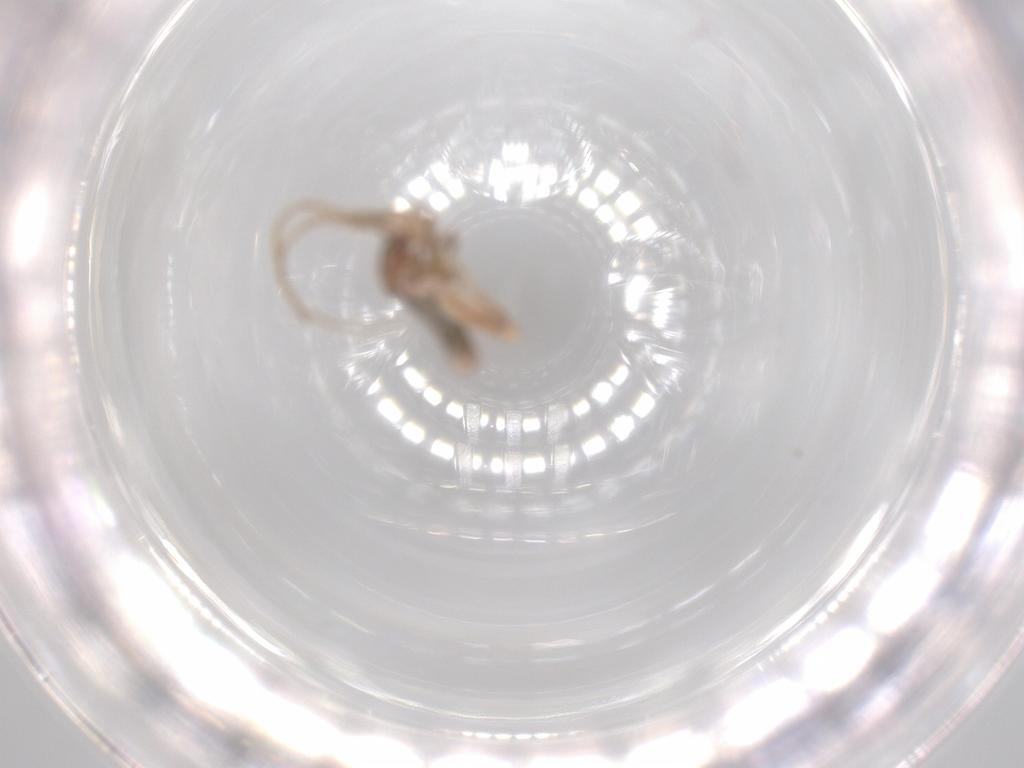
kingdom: Animalia
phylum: Arthropoda
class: Insecta
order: Orthoptera
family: Mogoplistidae
